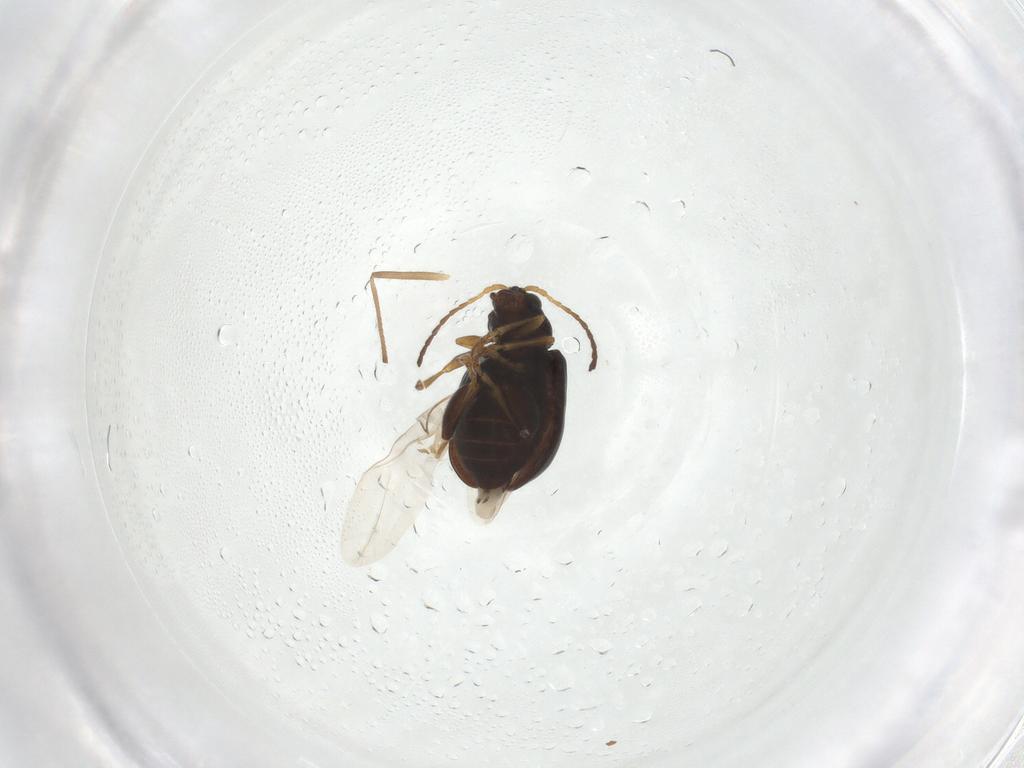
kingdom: Animalia
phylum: Arthropoda
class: Insecta
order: Coleoptera
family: Chrysomelidae
